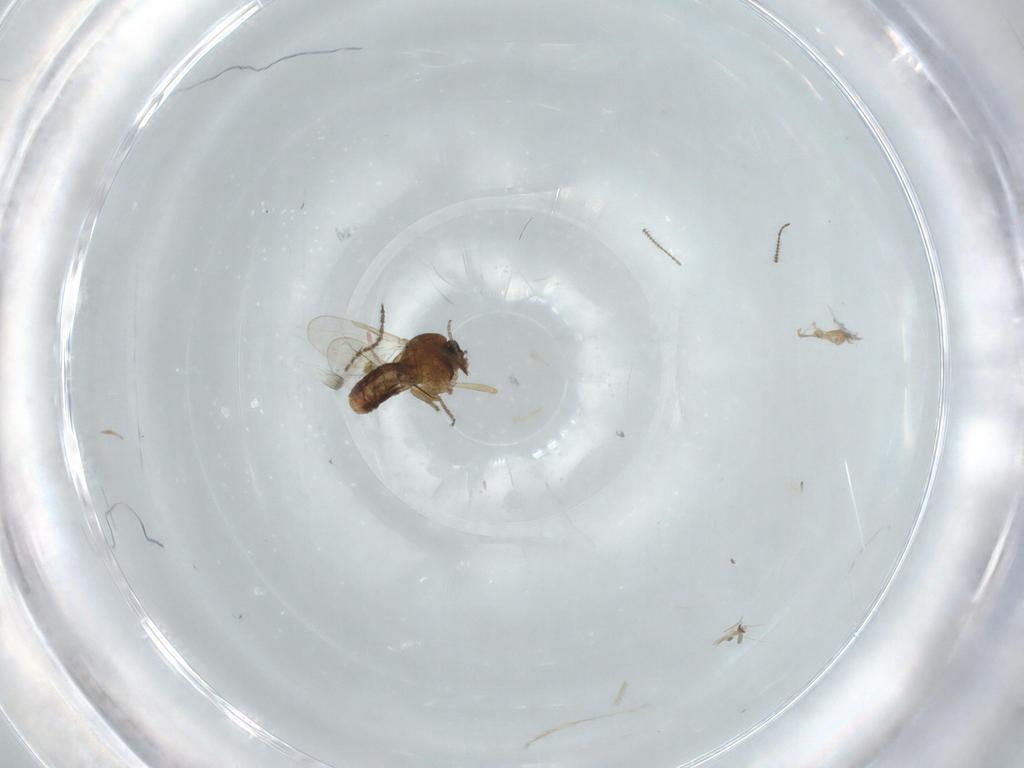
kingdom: Animalia
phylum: Arthropoda
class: Insecta
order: Diptera
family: Ceratopogonidae
